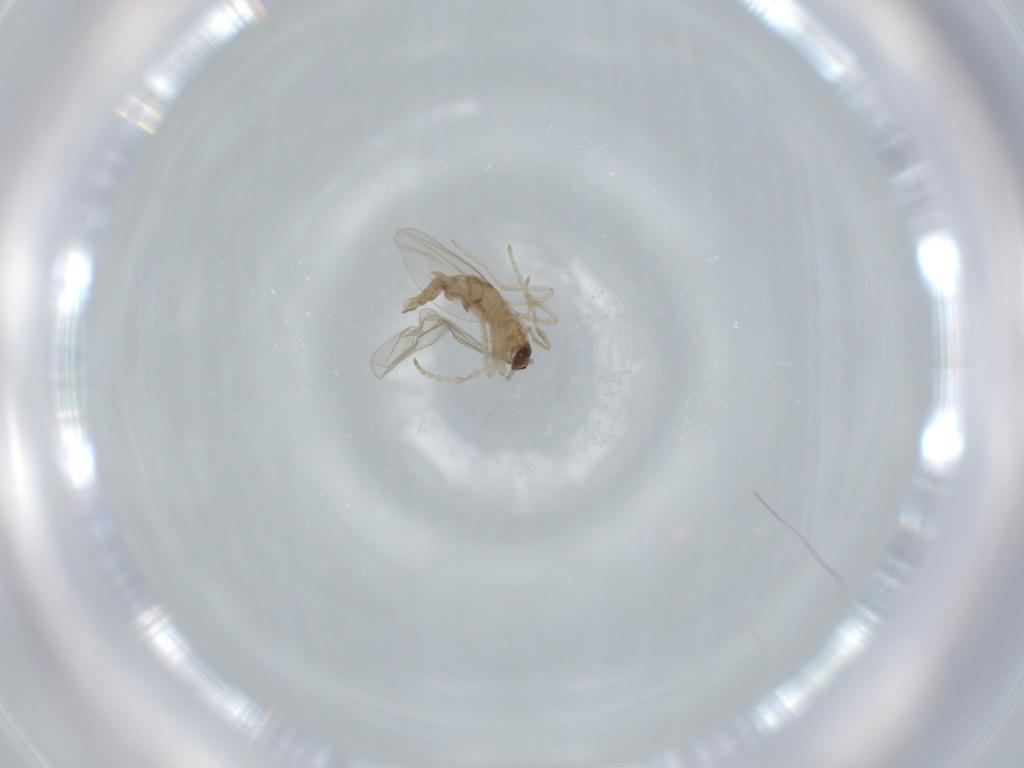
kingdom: Animalia
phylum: Arthropoda
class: Insecta
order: Diptera
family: Cecidomyiidae
